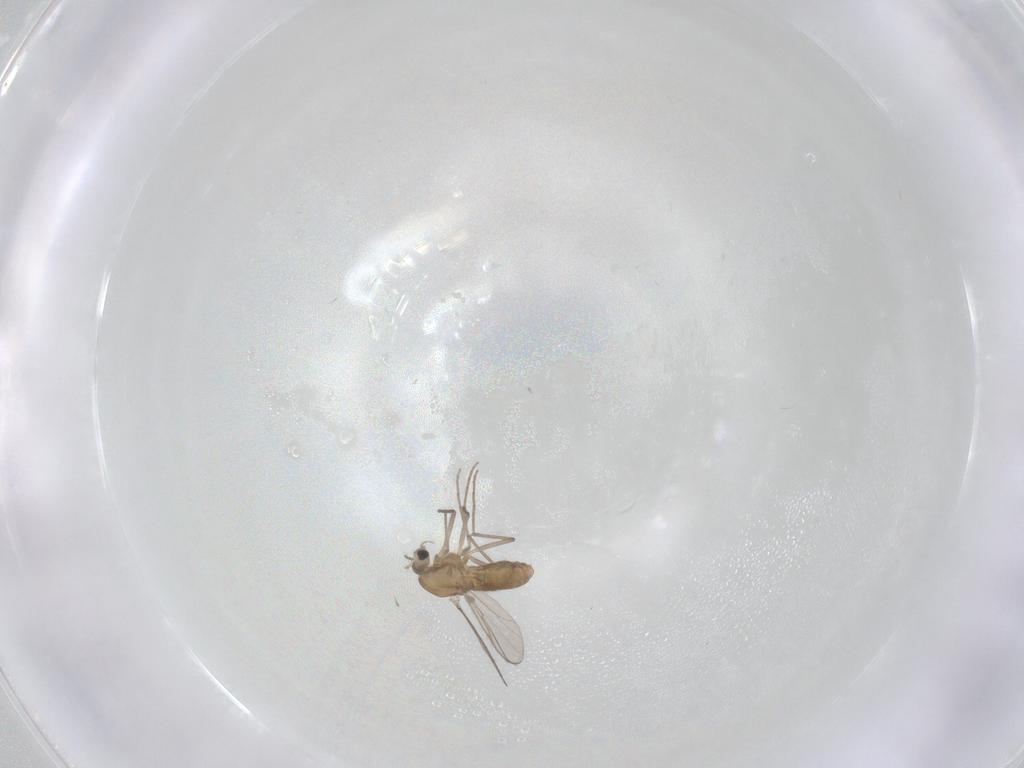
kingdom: Animalia
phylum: Arthropoda
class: Insecta
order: Diptera
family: Chironomidae
